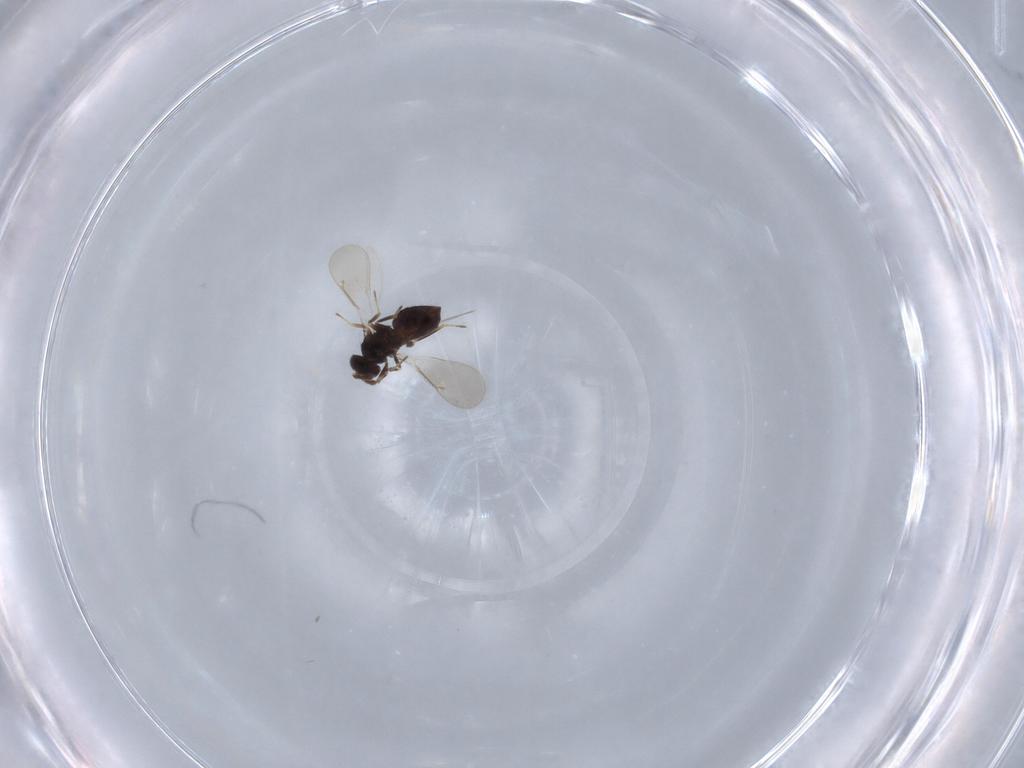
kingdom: Animalia
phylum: Arthropoda
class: Insecta
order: Hymenoptera
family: Eulophidae
